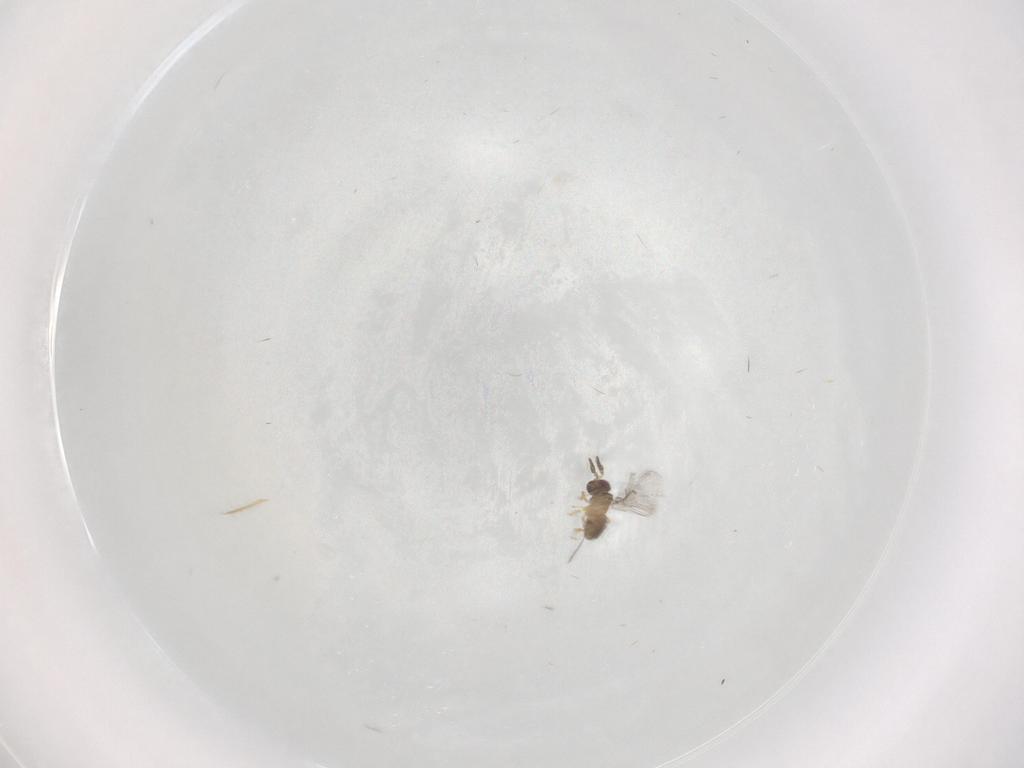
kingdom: Animalia
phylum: Arthropoda
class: Insecta
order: Hymenoptera
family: Trichogrammatidae
